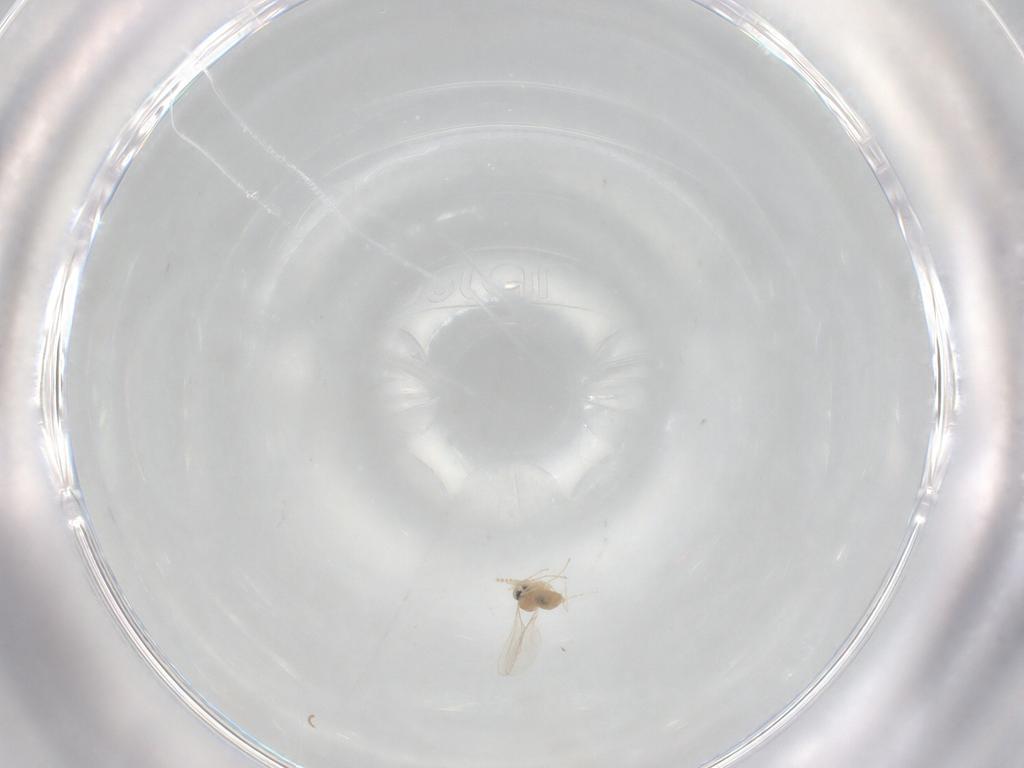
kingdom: Animalia
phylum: Arthropoda
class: Insecta
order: Diptera
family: Cecidomyiidae
